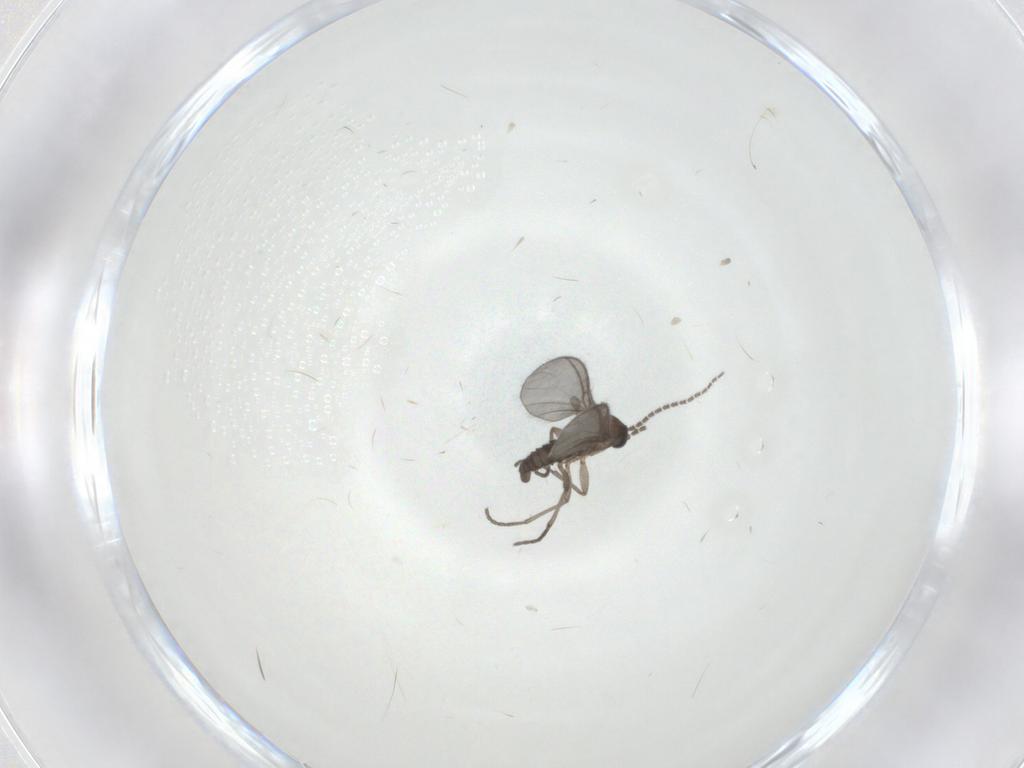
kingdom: Animalia
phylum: Arthropoda
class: Insecta
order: Diptera
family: Sciaridae
